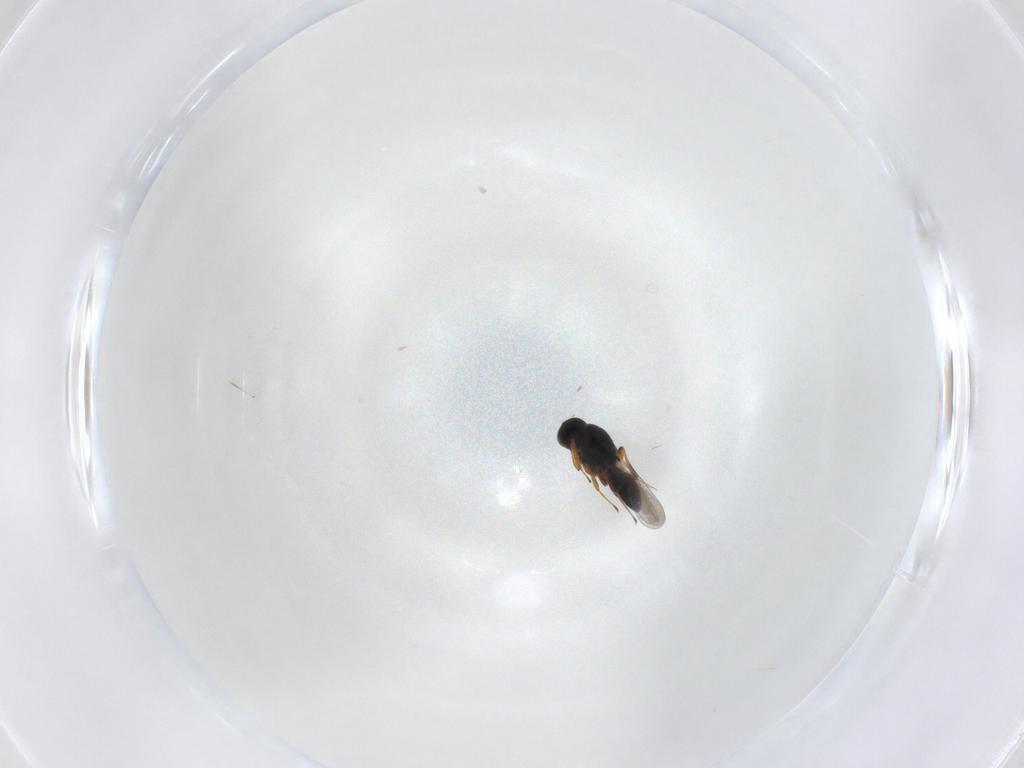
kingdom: Animalia
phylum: Arthropoda
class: Insecta
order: Hymenoptera
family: Platygastridae
